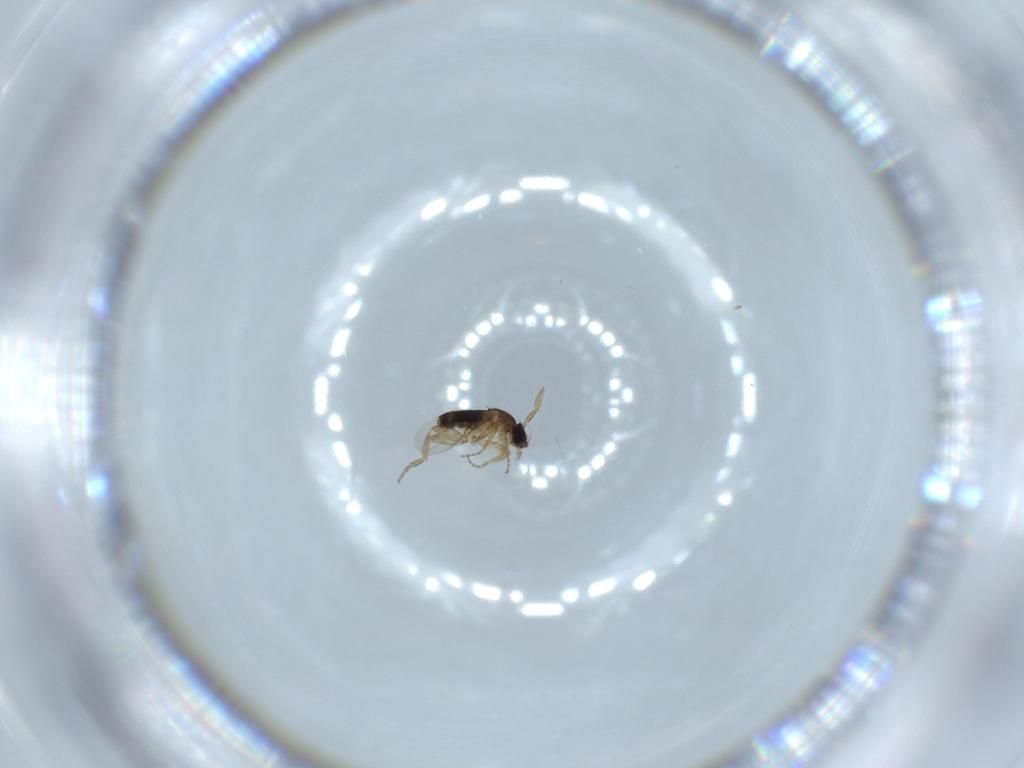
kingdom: Animalia
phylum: Arthropoda
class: Insecta
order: Diptera
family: Phoridae
